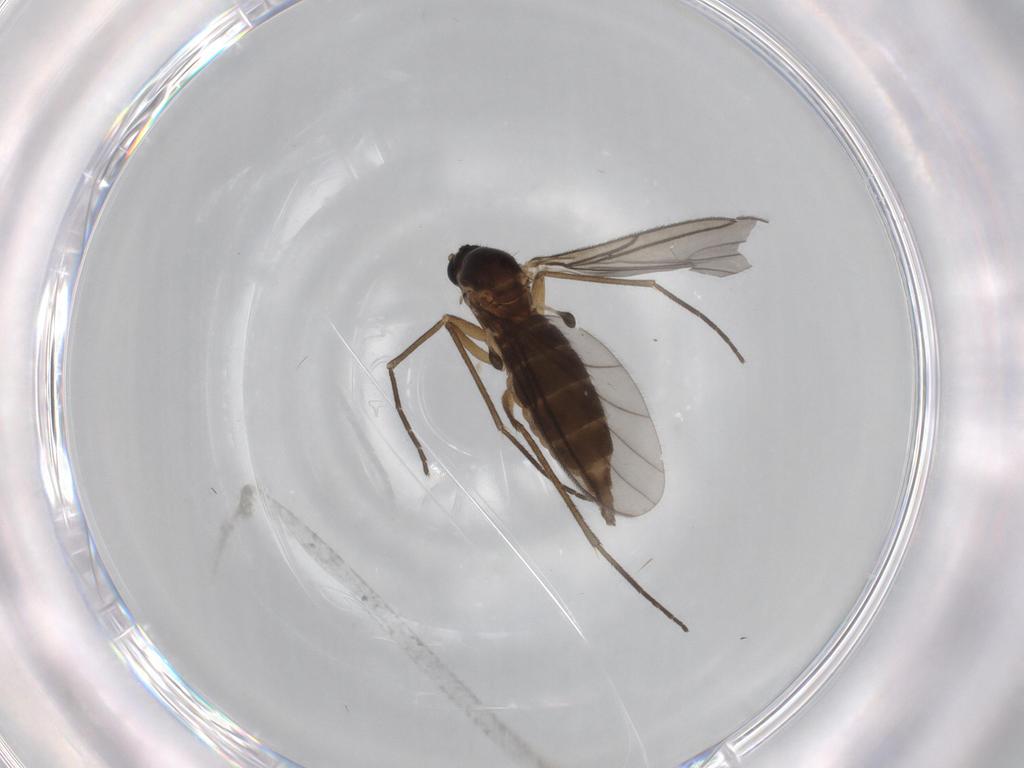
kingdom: Animalia
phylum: Arthropoda
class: Insecta
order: Diptera
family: Sciaridae
